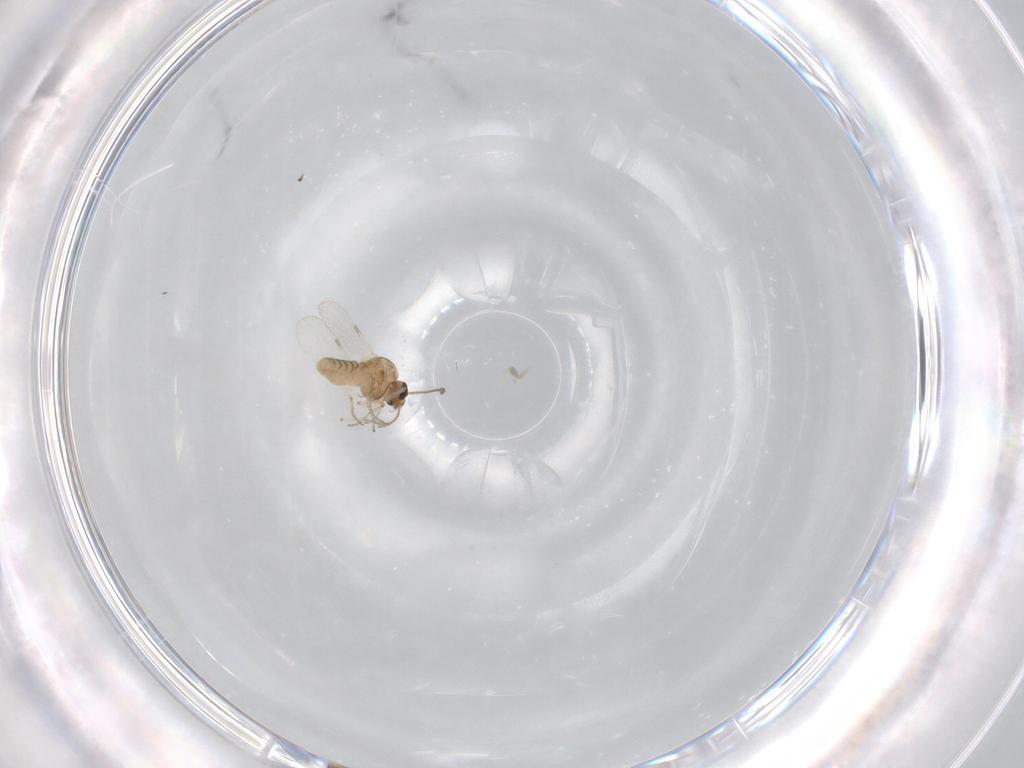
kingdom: Animalia
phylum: Arthropoda
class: Insecta
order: Diptera
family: Ceratopogonidae
